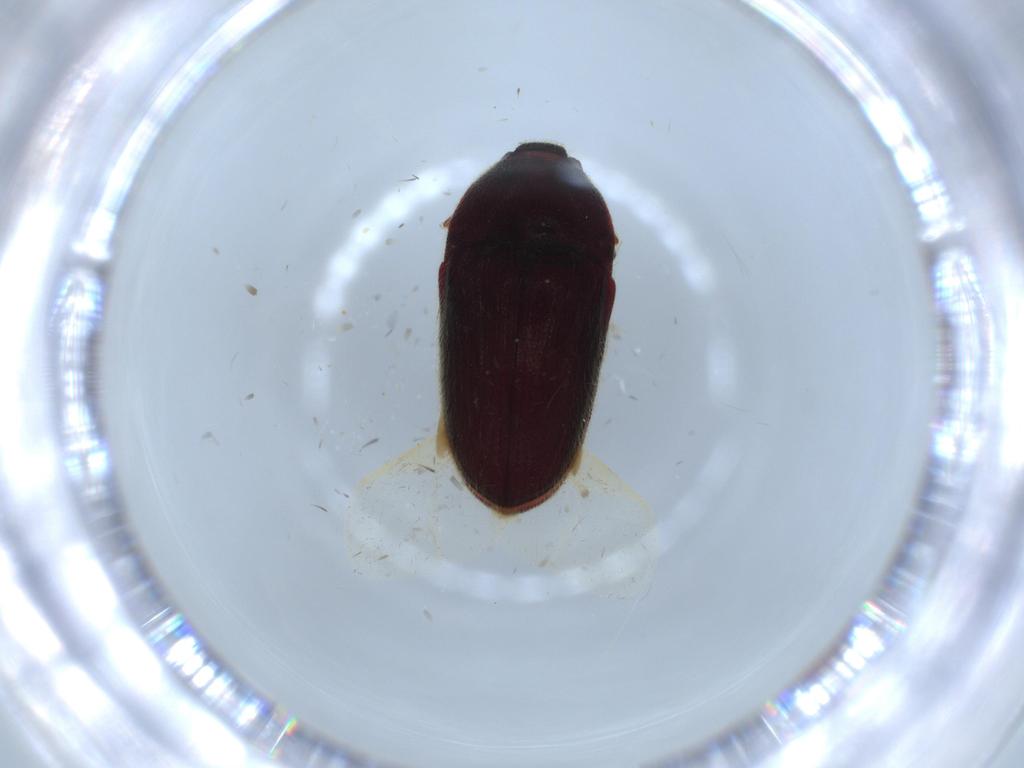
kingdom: Animalia
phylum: Arthropoda
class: Insecta
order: Coleoptera
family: Throscidae
